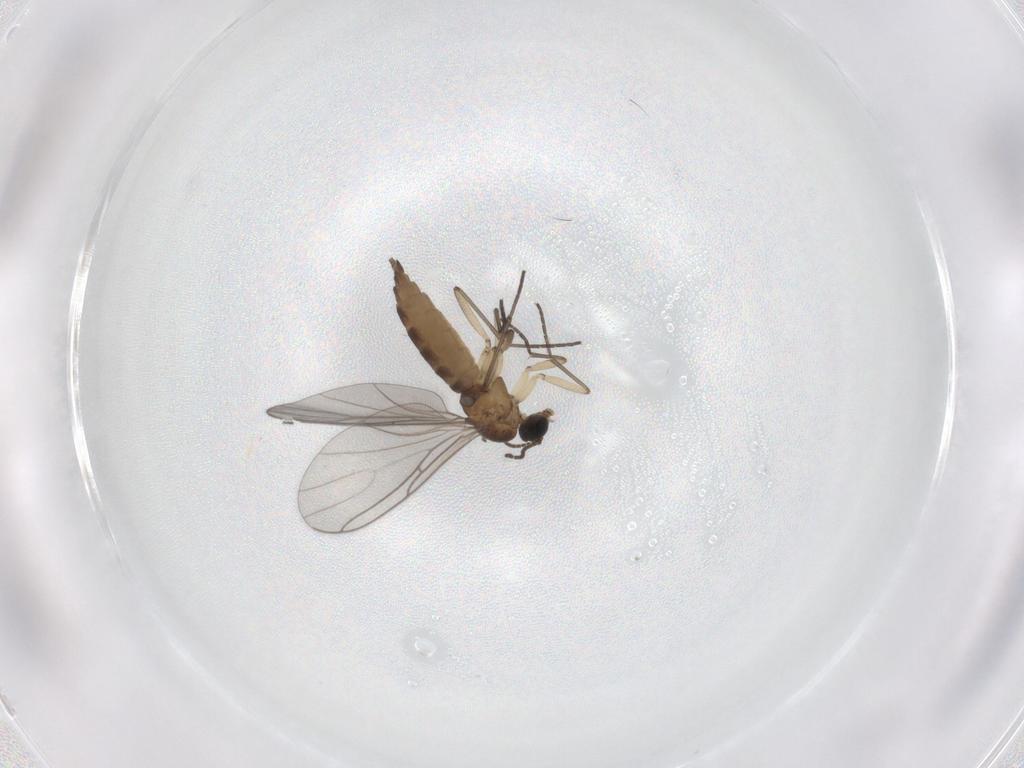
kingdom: Animalia
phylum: Arthropoda
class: Insecta
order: Diptera
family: Sciaridae
